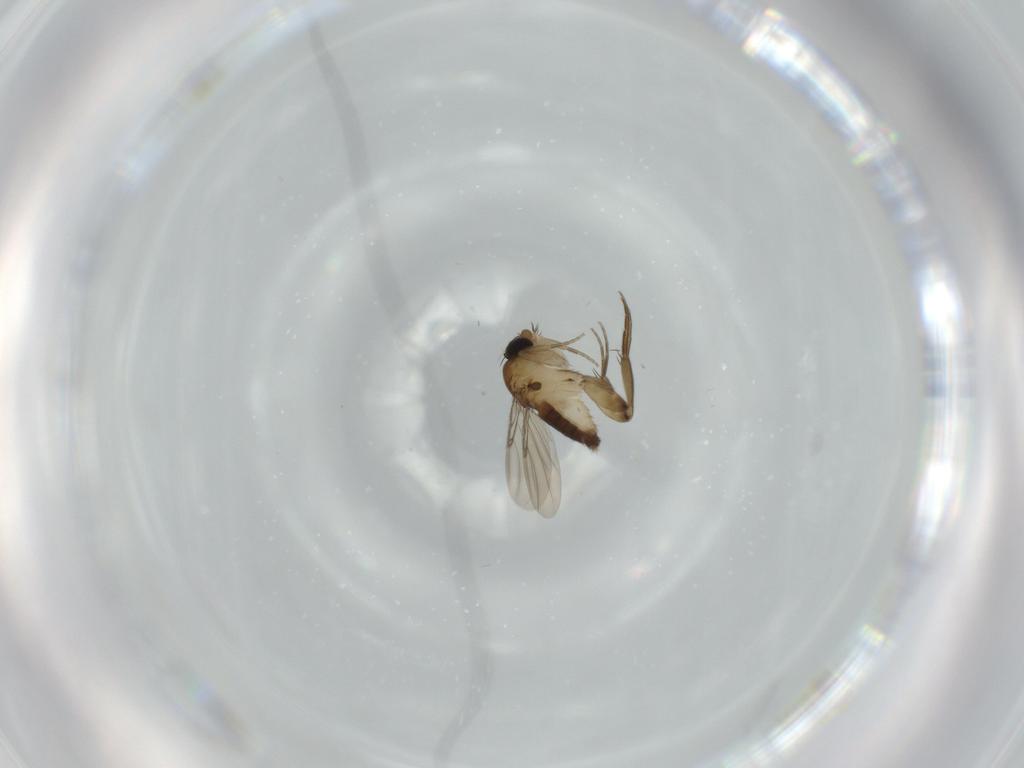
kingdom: Animalia
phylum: Arthropoda
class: Insecta
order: Diptera
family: Phoridae
